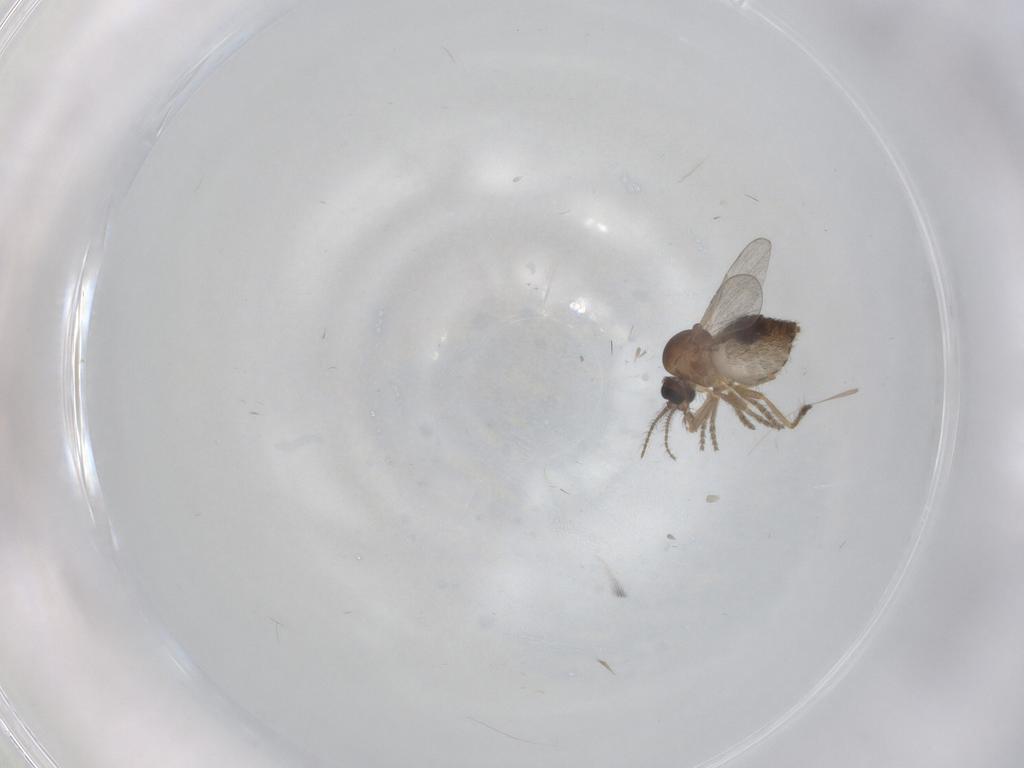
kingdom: Animalia
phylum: Arthropoda
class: Insecta
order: Diptera
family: Ceratopogonidae
